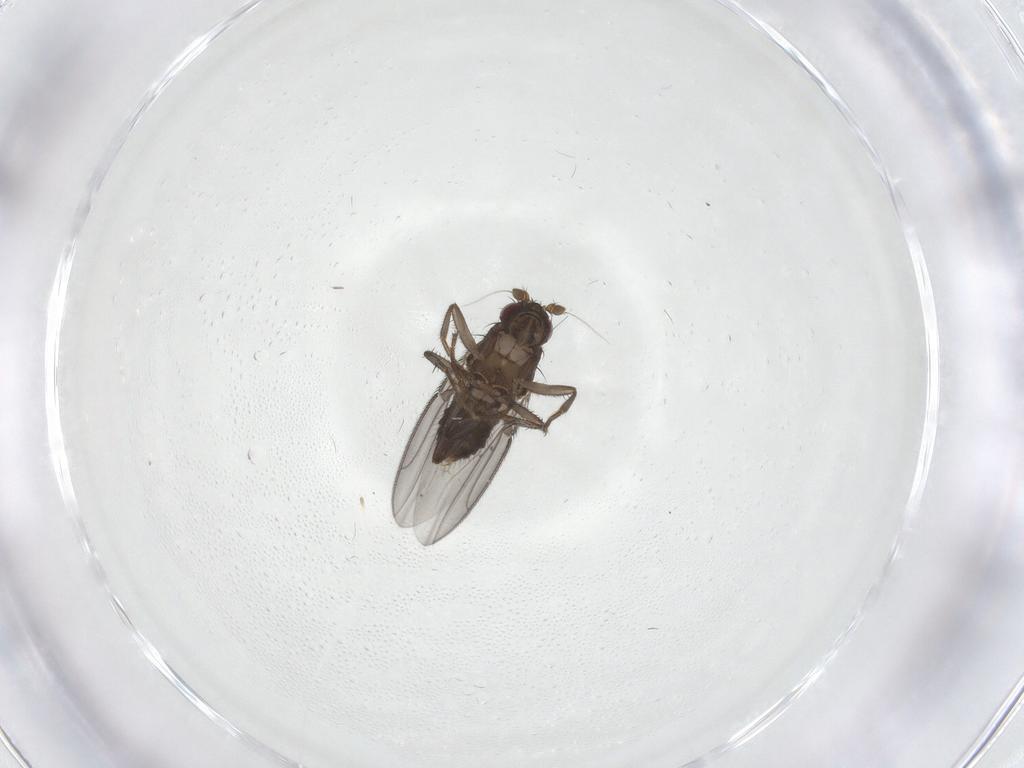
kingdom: Animalia
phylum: Arthropoda
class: Insecta
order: Diptera
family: Sphaeroceridae
